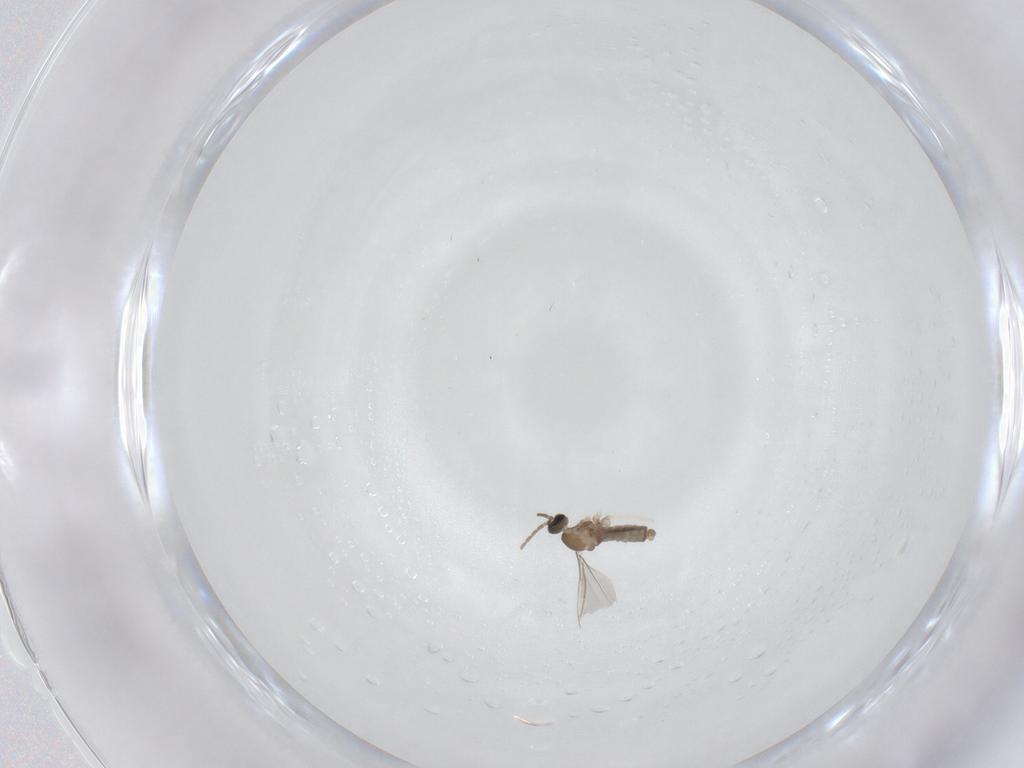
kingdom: Animalia
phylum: Arthropoda
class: Insecta
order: Diptera
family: Cecidomyiidae
